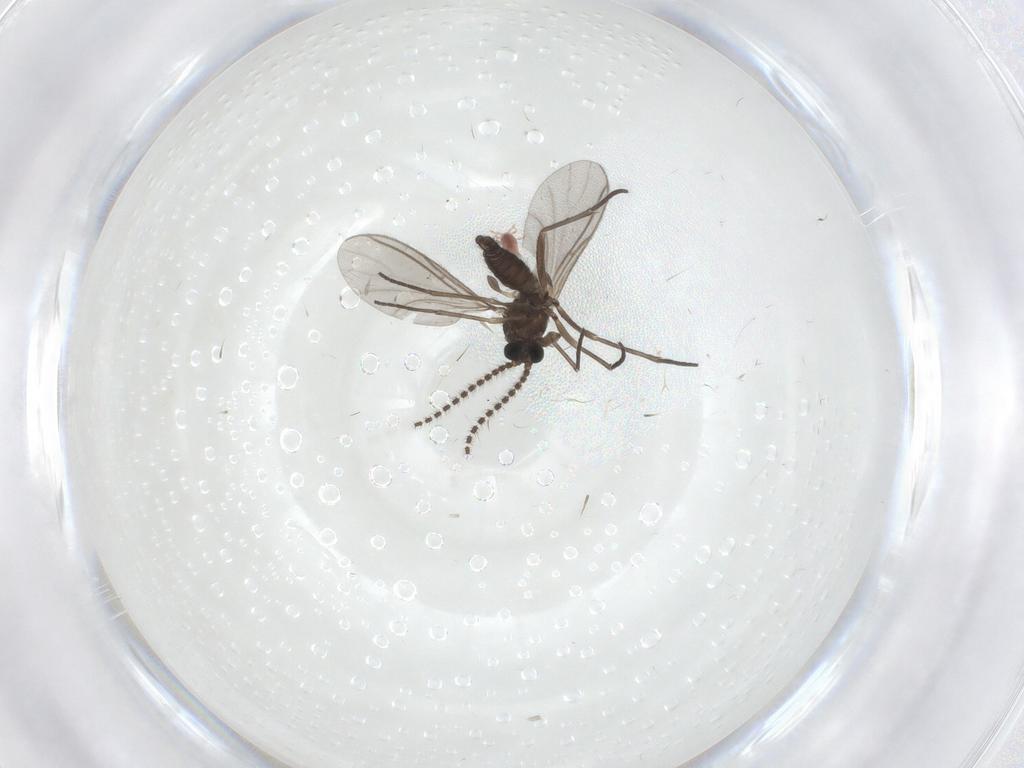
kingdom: Animalia
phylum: Arthropoda
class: Insecta
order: Diptera
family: Sciaridae
